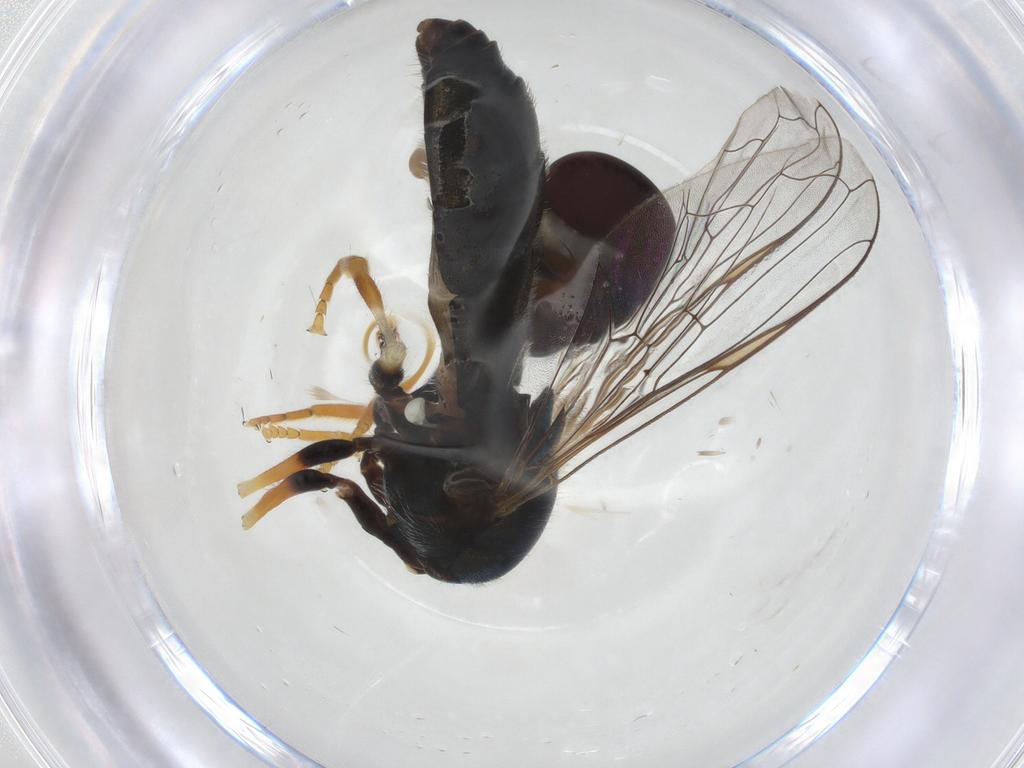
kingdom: Animalia
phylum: Arthropoda
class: Insecta
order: Diptera
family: Syrphidae
